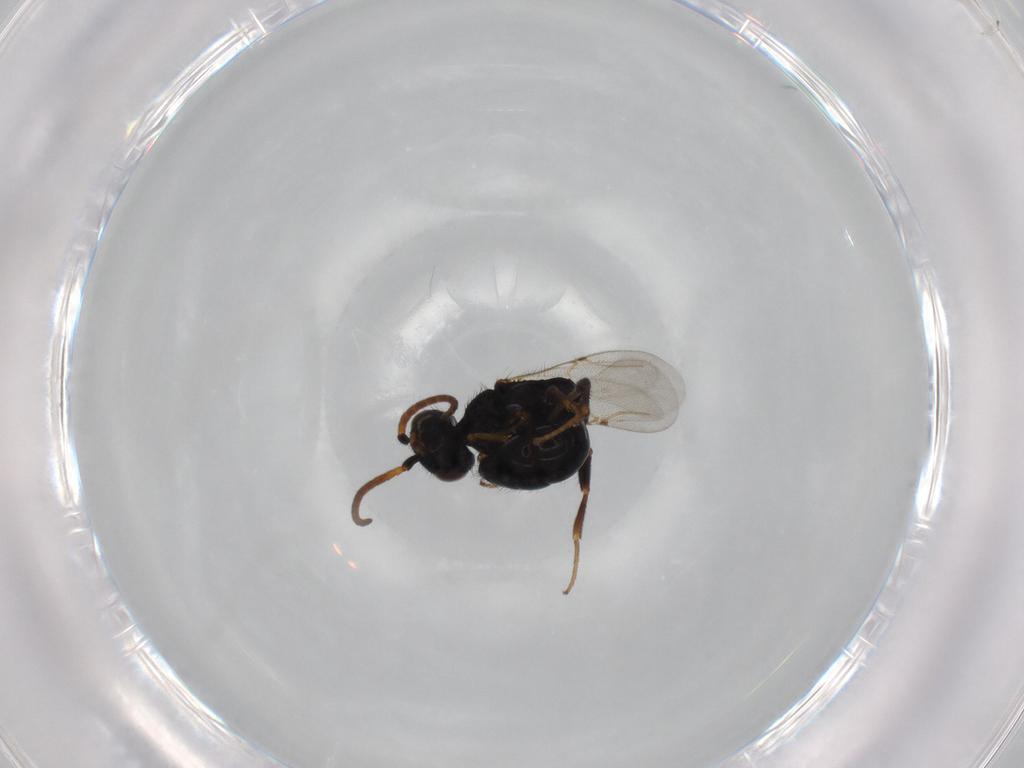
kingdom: Animalia
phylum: Arthropoda
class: Insecta
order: Hymenoptera
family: Bethylidae
